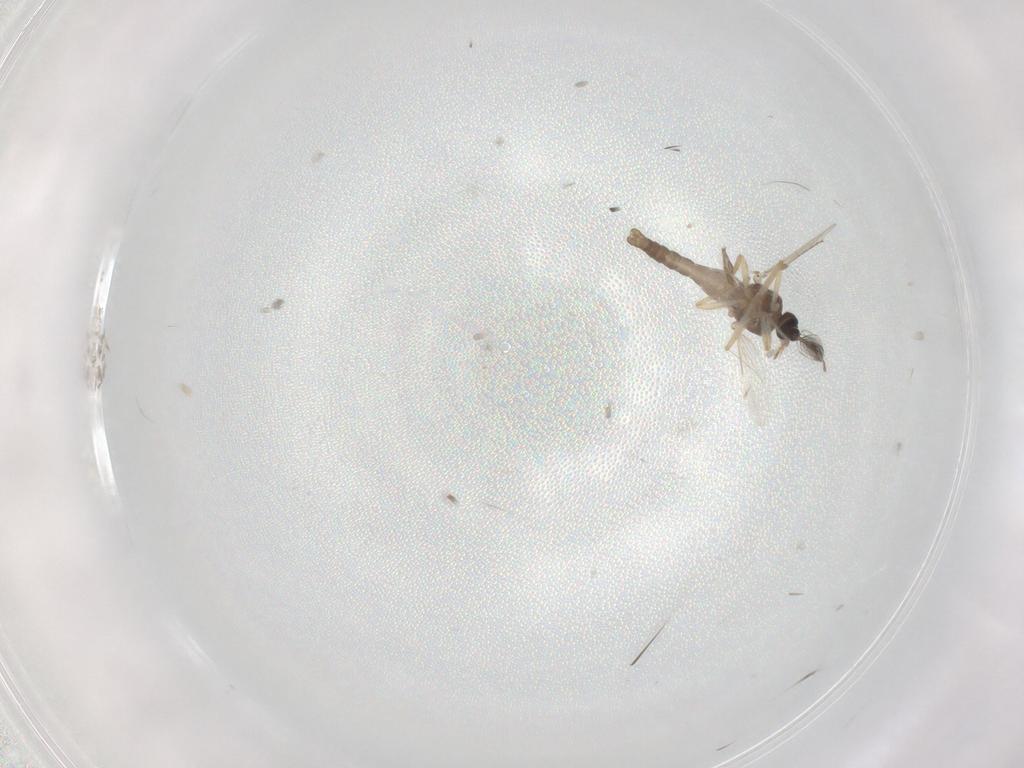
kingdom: Animalia
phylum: Arthropoda
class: Insecta
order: Diptera
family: Ceratopogonidae
